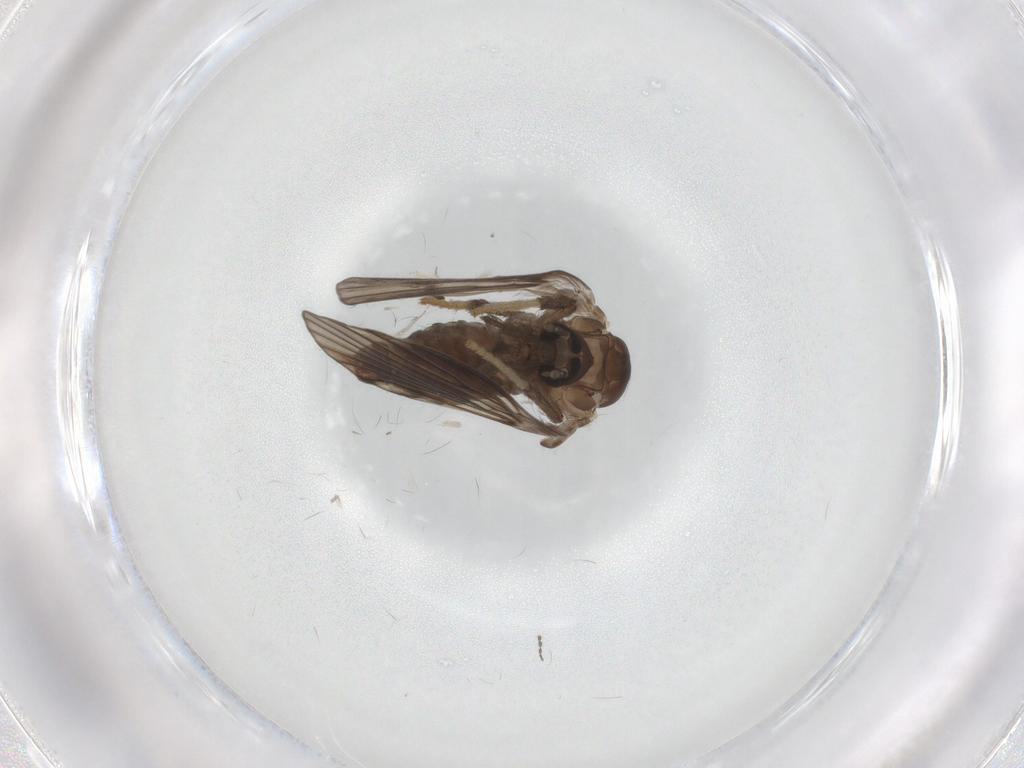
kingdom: Animalia
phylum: Arthropoda
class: Insecta
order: Diptera
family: Psychodidae
